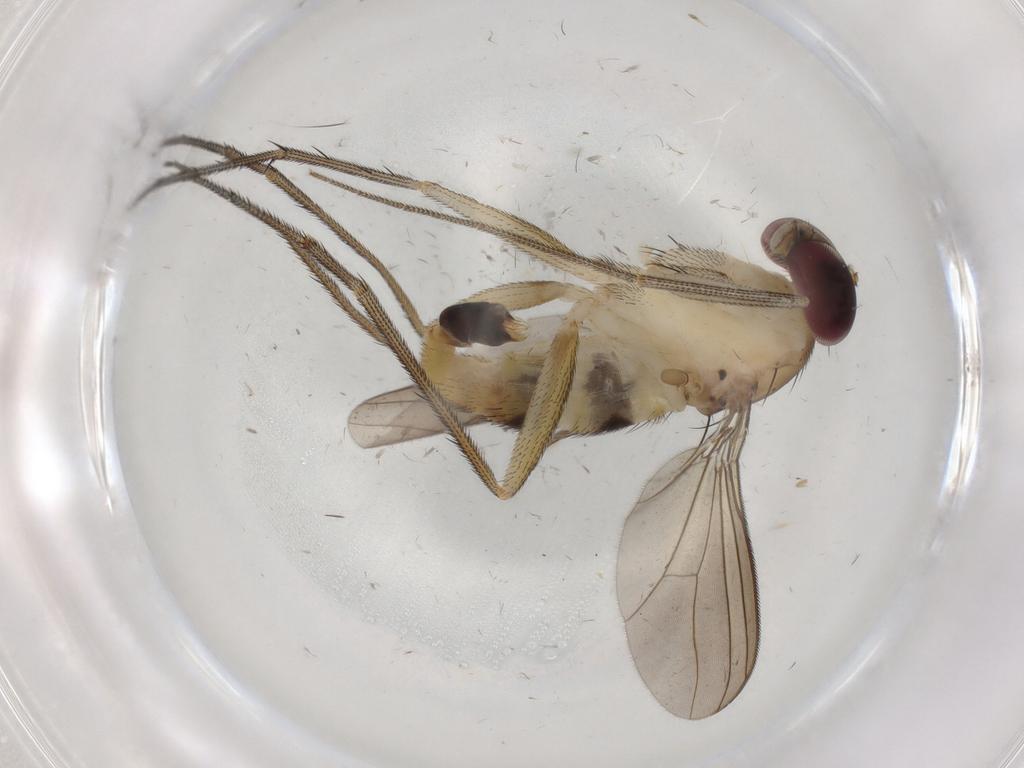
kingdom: Animalia
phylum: Arthropoda
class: Insecta
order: Diptera
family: Dolichopodidae
